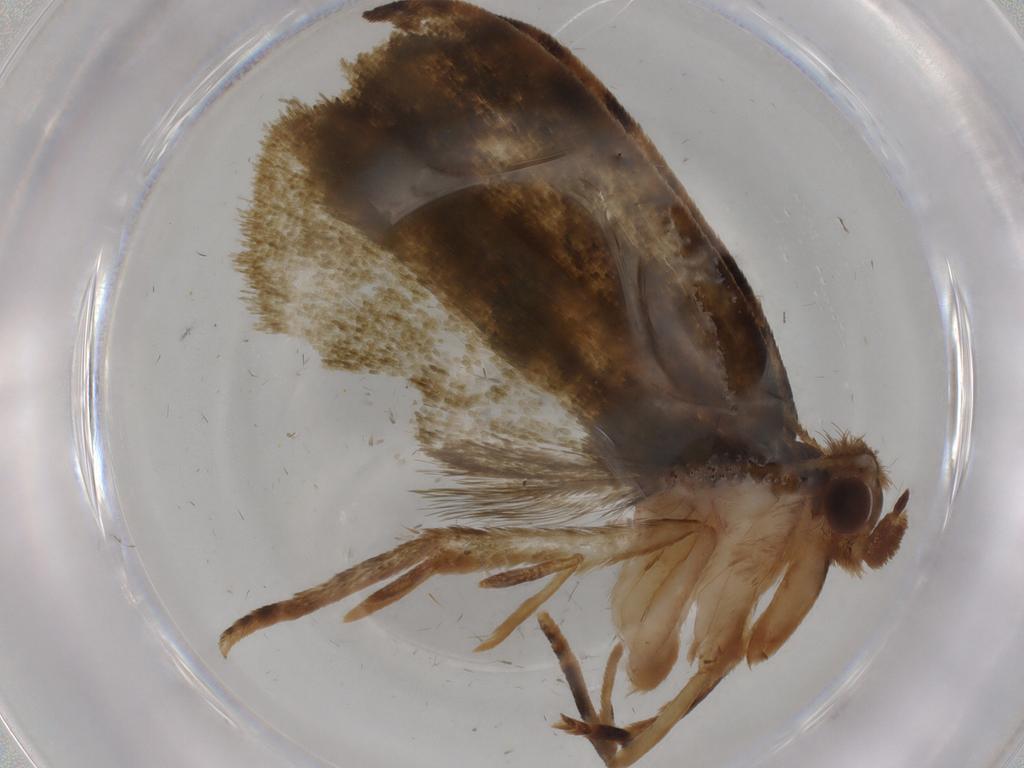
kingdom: Animalia
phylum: Arthropoda
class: Insecta
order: Lepidoptera
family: Geometridae
